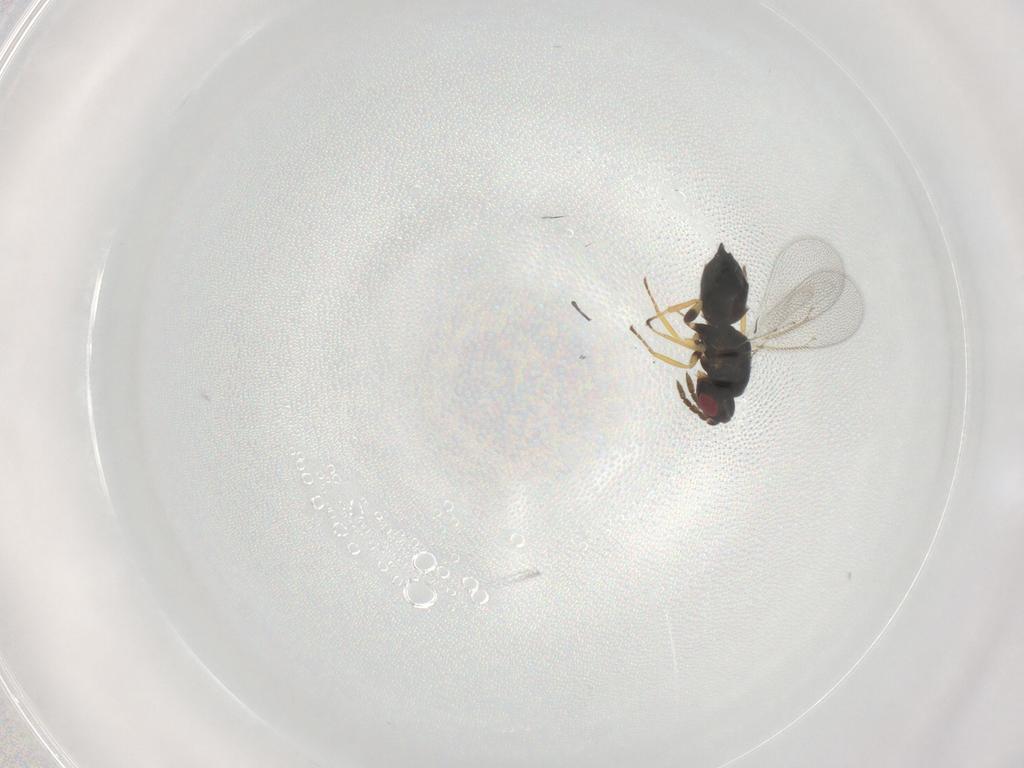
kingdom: Animalia
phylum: Arthropoda
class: Insecta
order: Hymenoptera
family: Eulophidae
